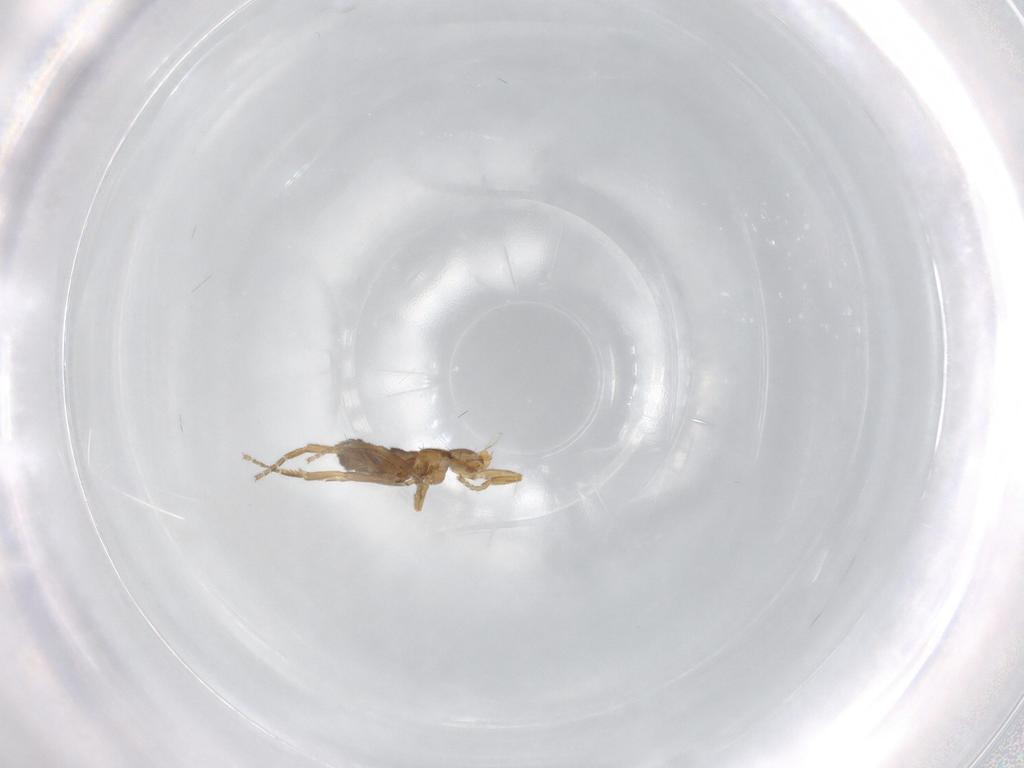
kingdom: Animalia
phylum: Arthropoda
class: Insecta
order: Diptera
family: Phoridae
